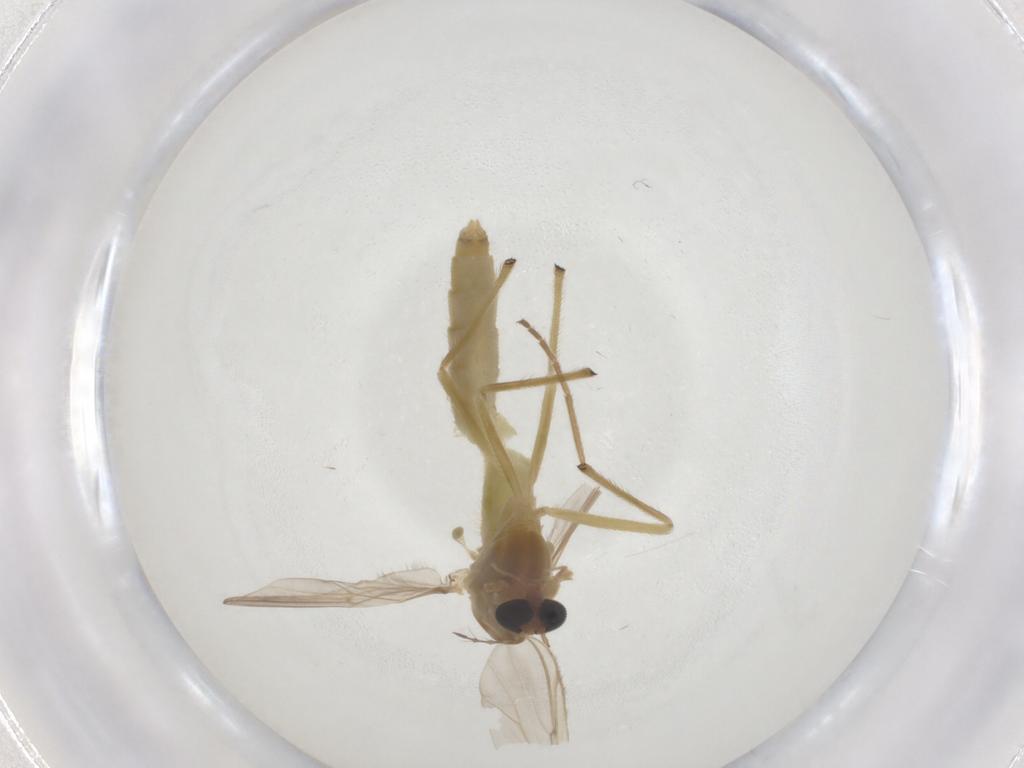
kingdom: Animalia
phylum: Arthropoda
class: Insecta
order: Diptera
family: Chironomidae
